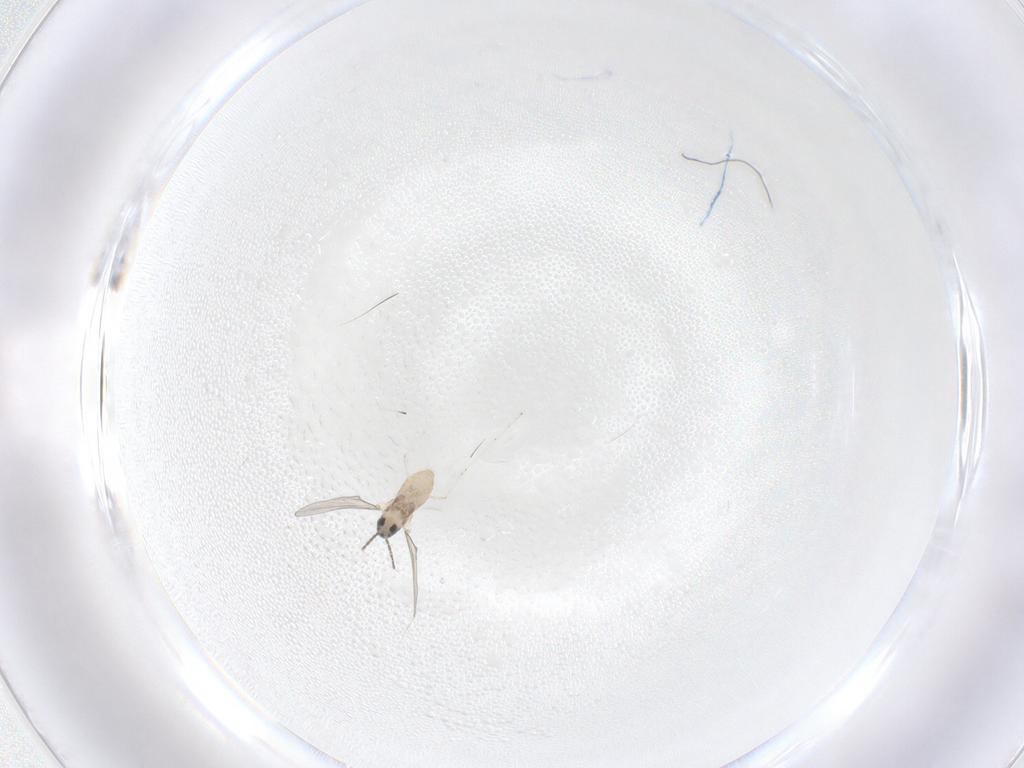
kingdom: Animalia
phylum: Arthropoda
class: Insecta
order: Diptera
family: Cecidomyiidae
